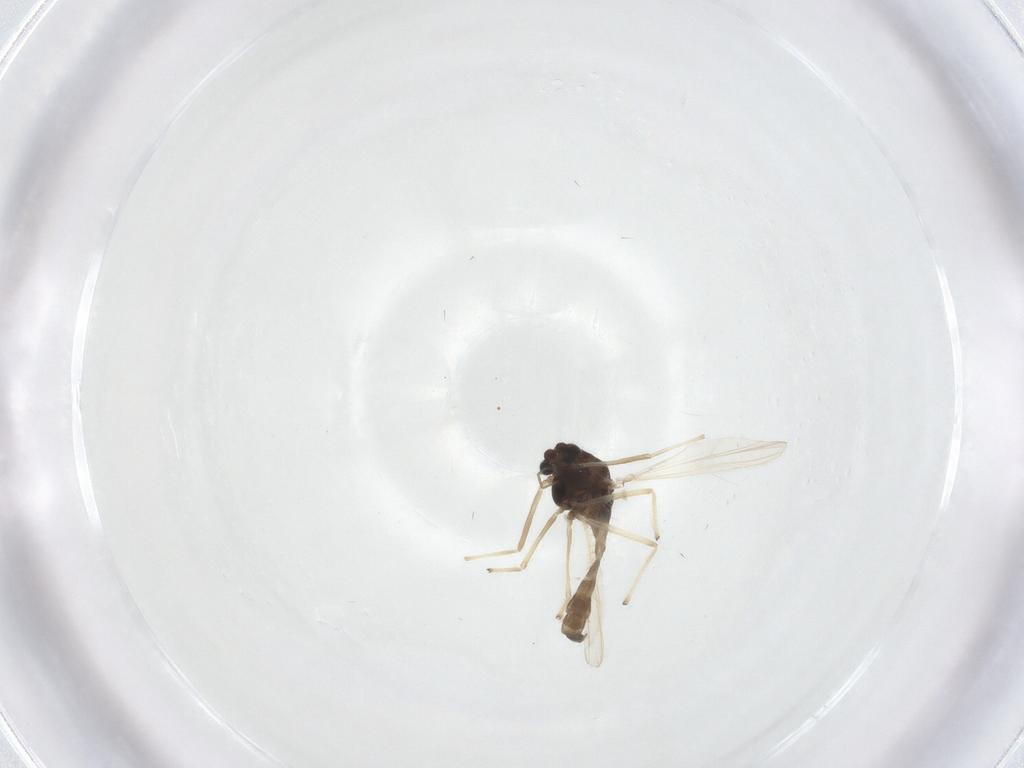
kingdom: Animalia
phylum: Arthropoda
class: Insecta
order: Diptera
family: Chironomidae
